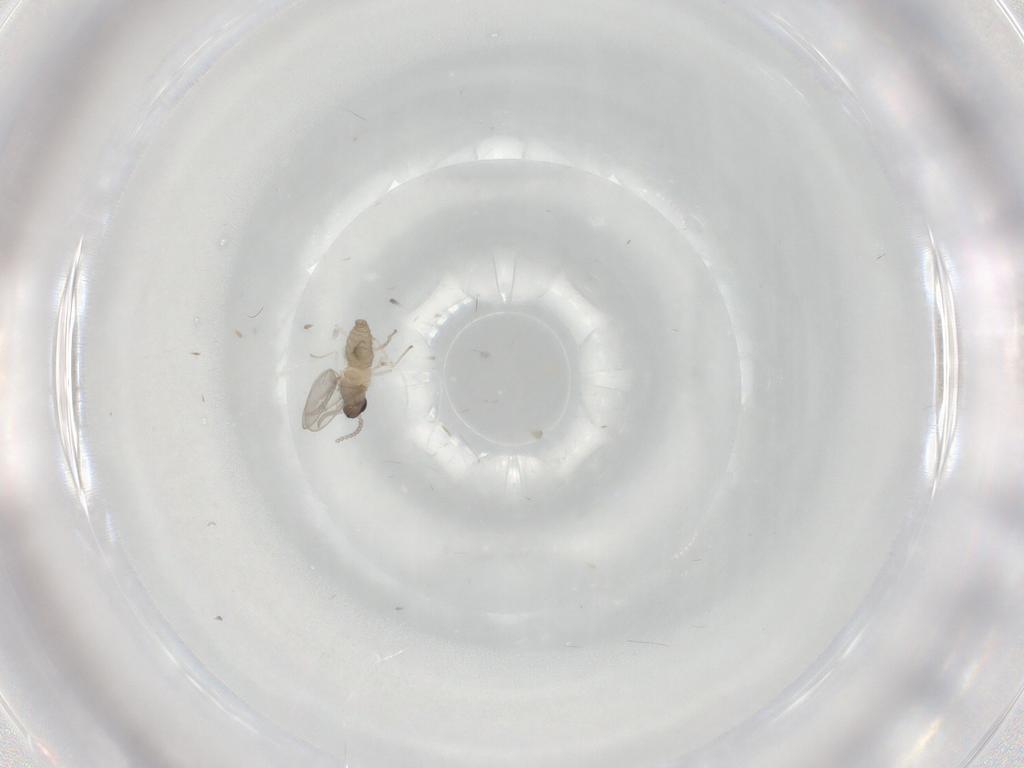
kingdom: Animalia
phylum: Arthropoda
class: Insecta
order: Diptera
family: Cecidomyiidae
